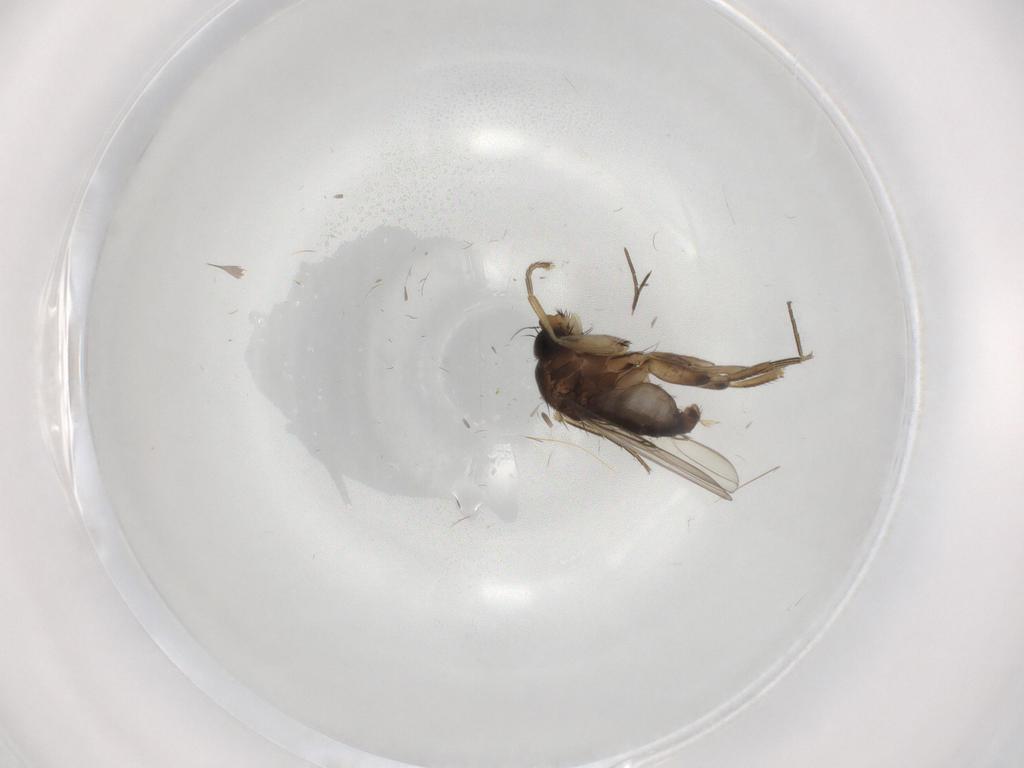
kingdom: Animalia
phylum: Arthropoda
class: Insecta
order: Diptera
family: Phoridae
